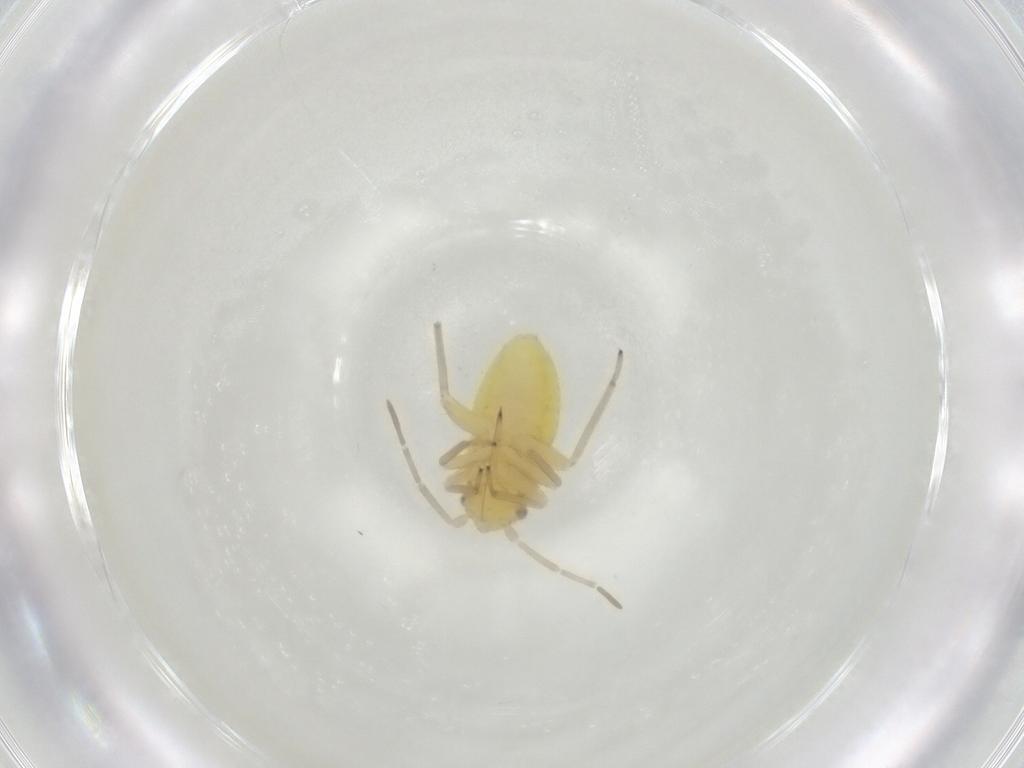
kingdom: Animalia
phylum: Arthropoda
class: Insecta
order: Hemiptera
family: Miridae
